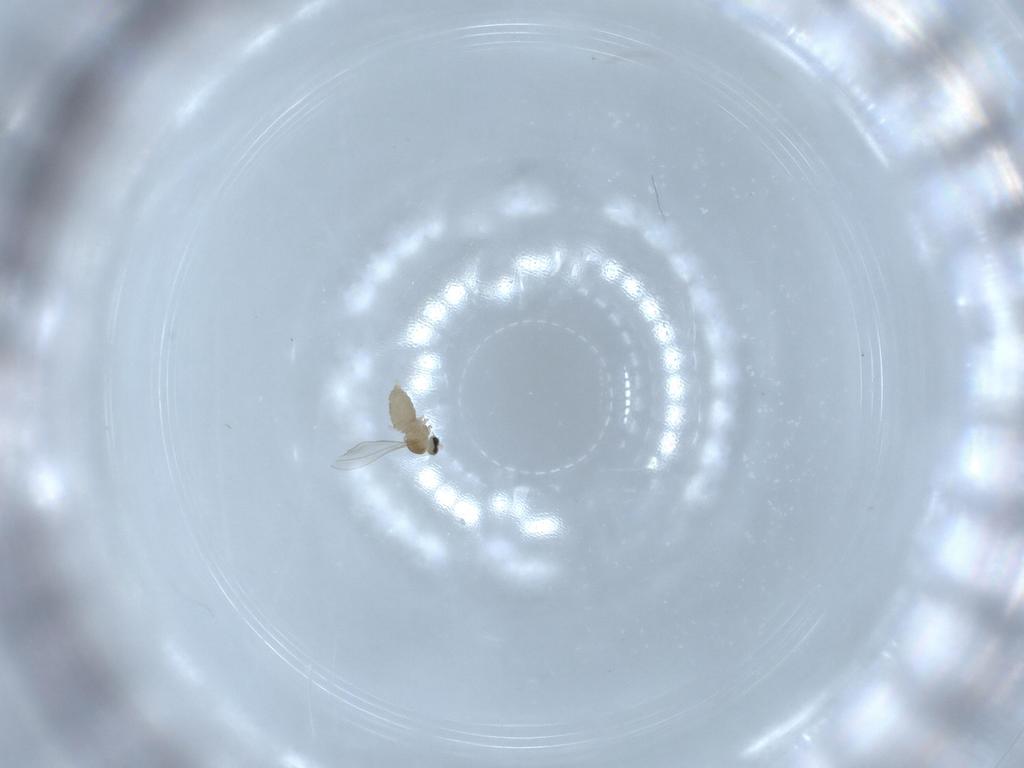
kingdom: Animalia
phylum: Arthropoda
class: Insecta
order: Diptera
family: Cecidomyiidae
